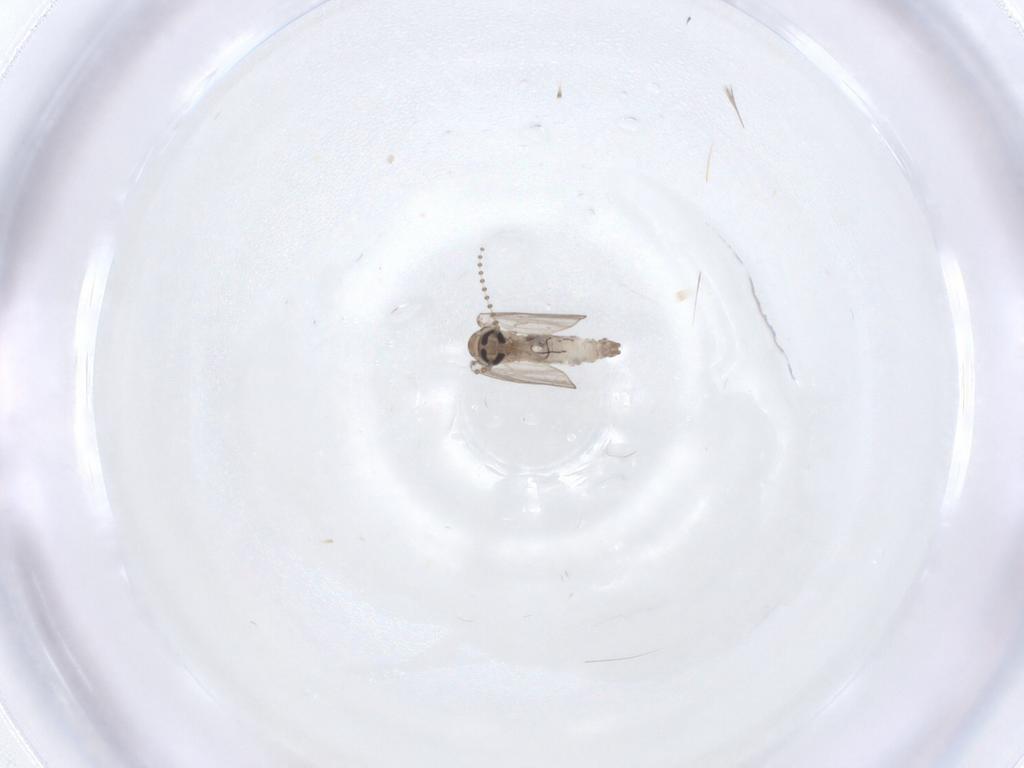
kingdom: Animalia
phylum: Arthropoda
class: Insecta
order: Diptera
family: Psychodidae
